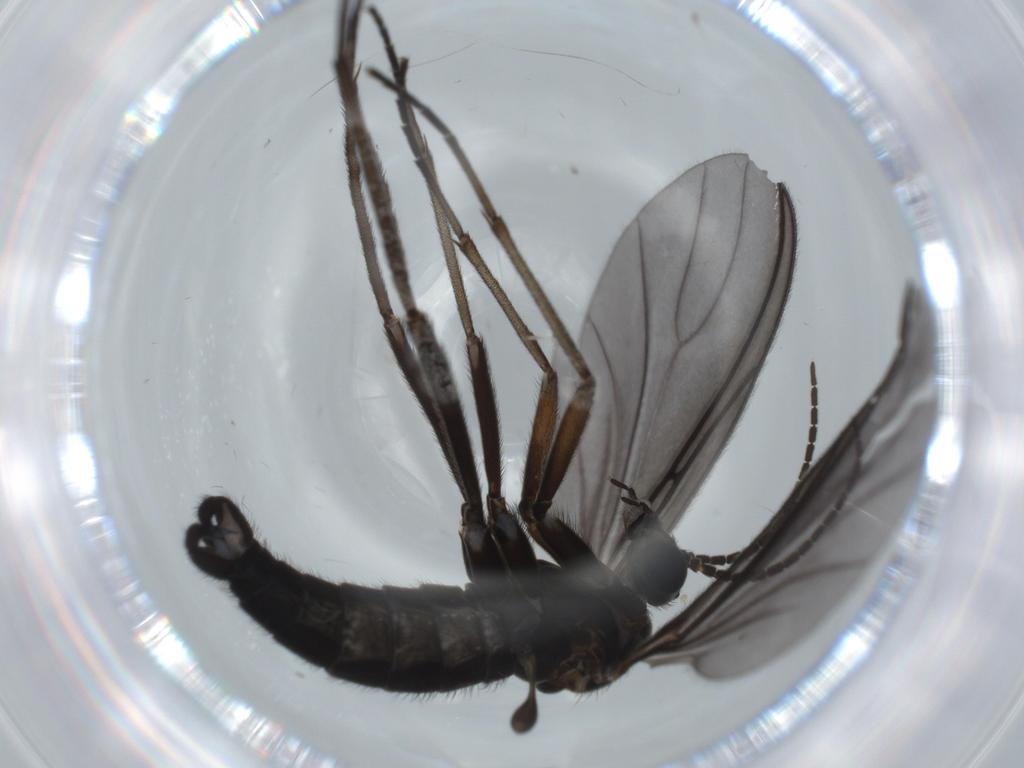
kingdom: Animalia
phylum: Arthropoda
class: Insecta
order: Diptera
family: Sciaridae
